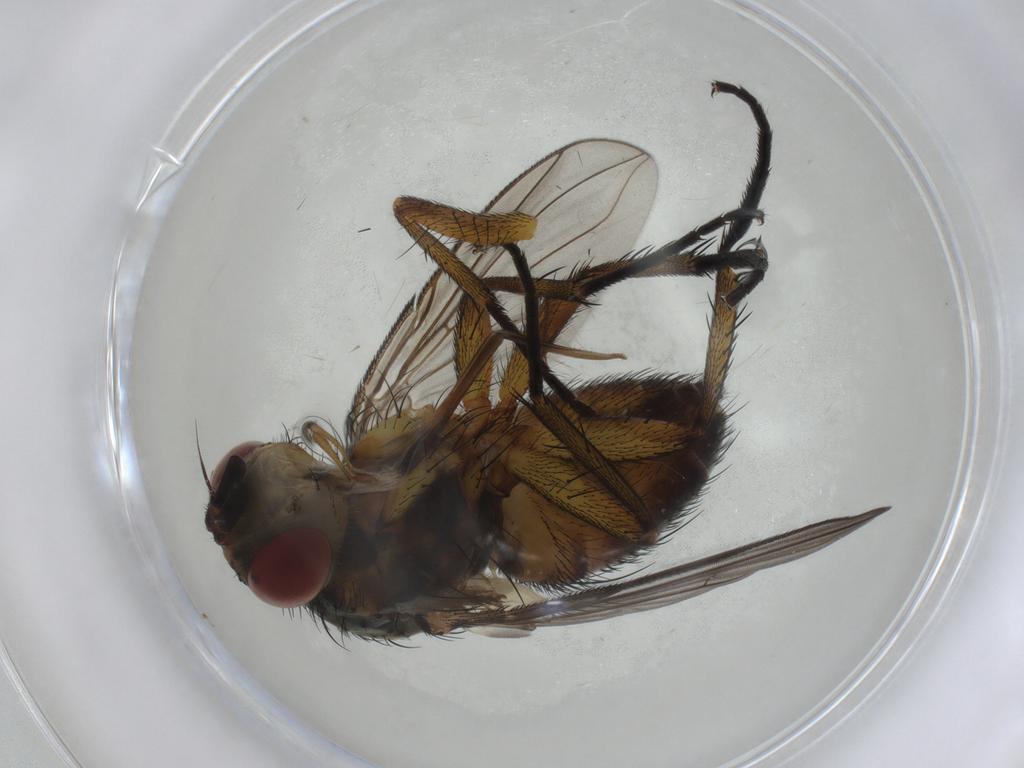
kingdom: Animalia
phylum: Arthropoda
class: Insecta
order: Diptera
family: Tachinidae
